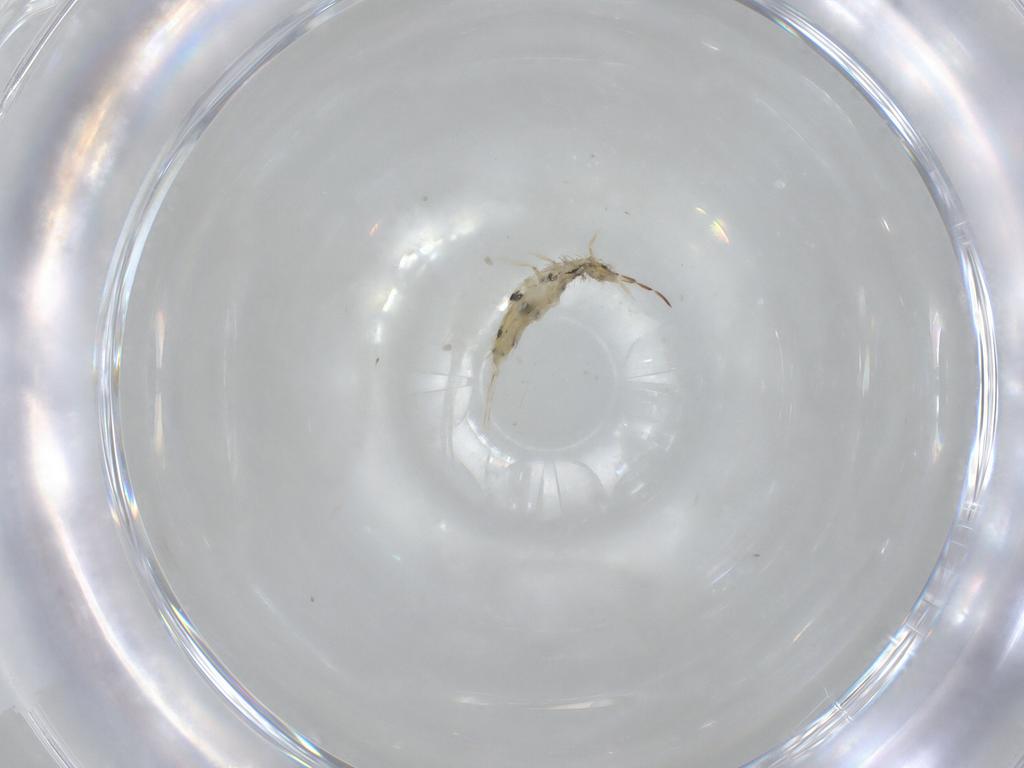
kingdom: Animalia
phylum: Arthropoda
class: Collembola
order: Entomobryomorpha
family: Entomobryidae
